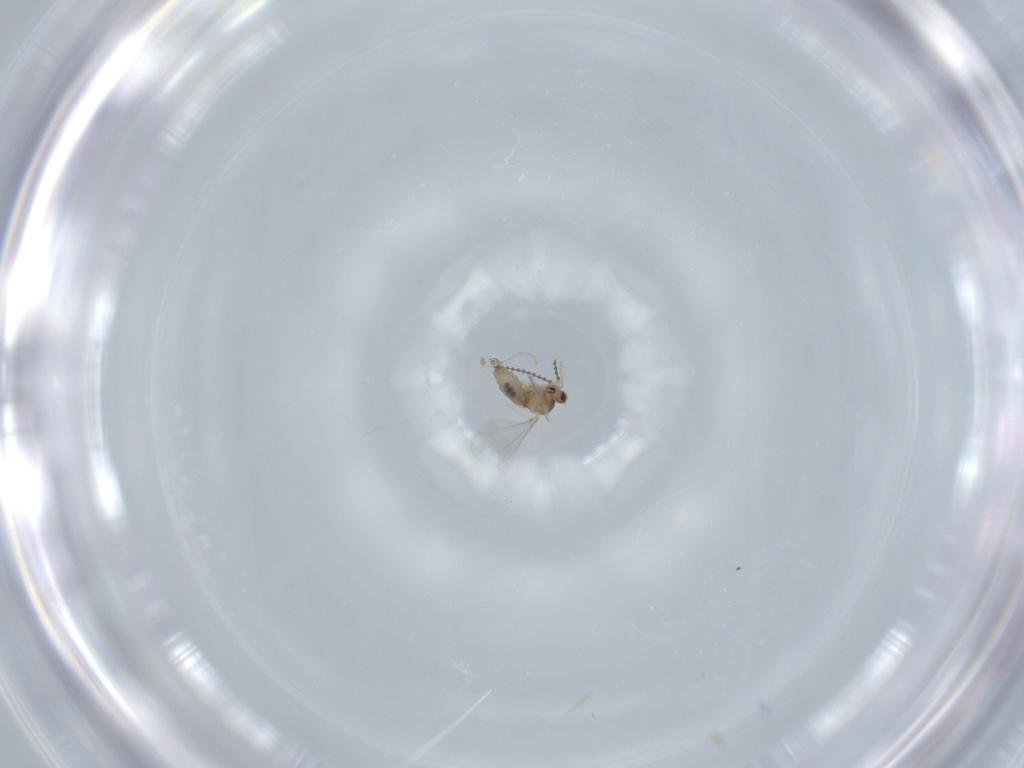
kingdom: Animalia
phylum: Arthropoda
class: Insecta
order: Diptera
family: Cecidomyiidae
